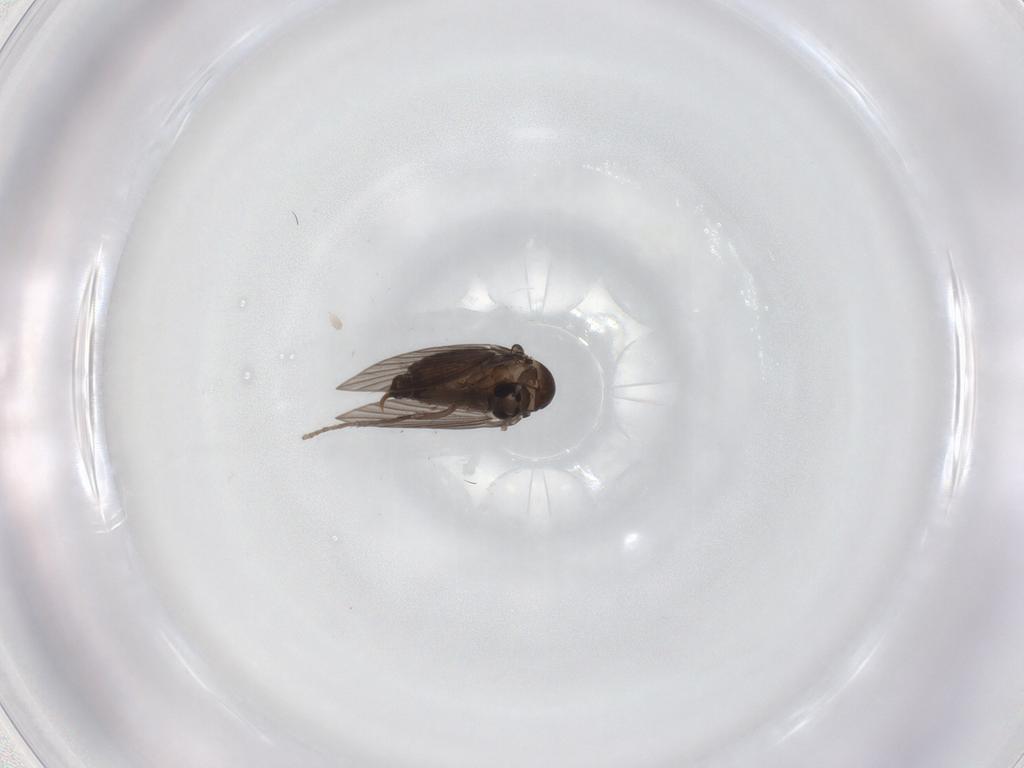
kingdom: Animalia
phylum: Arthropoda
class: Insecta
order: Diptera
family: Psychodidae
